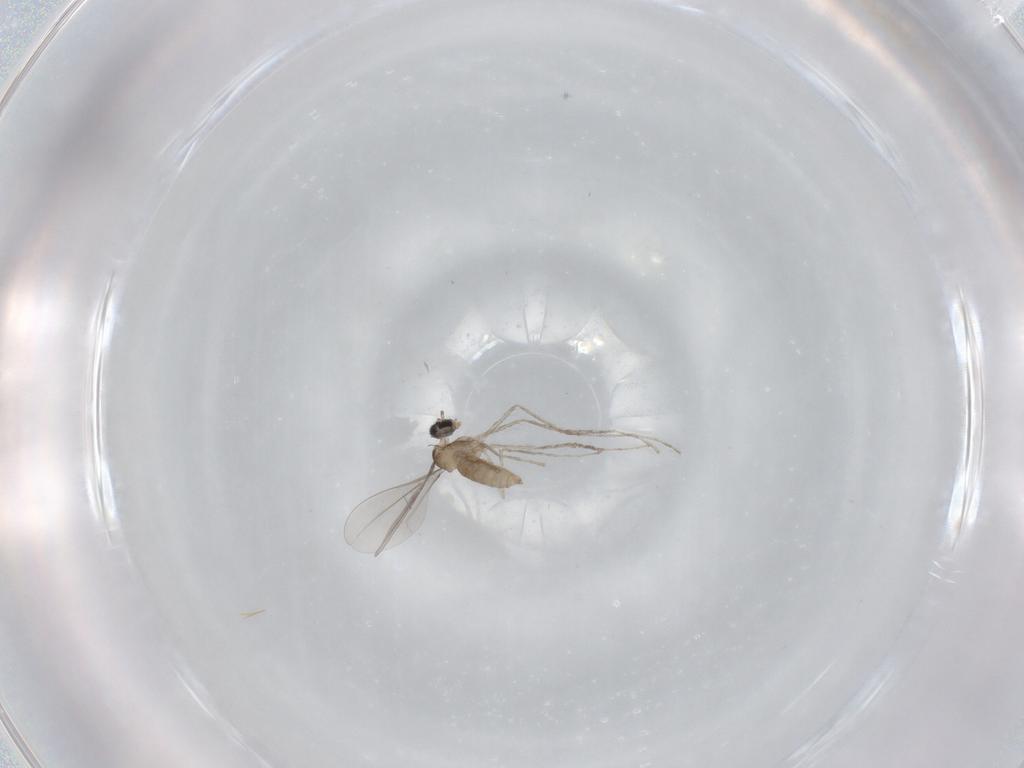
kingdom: Animalia
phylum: Arthropoda
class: Insecta
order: Diptera
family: Cecidomyiidae
